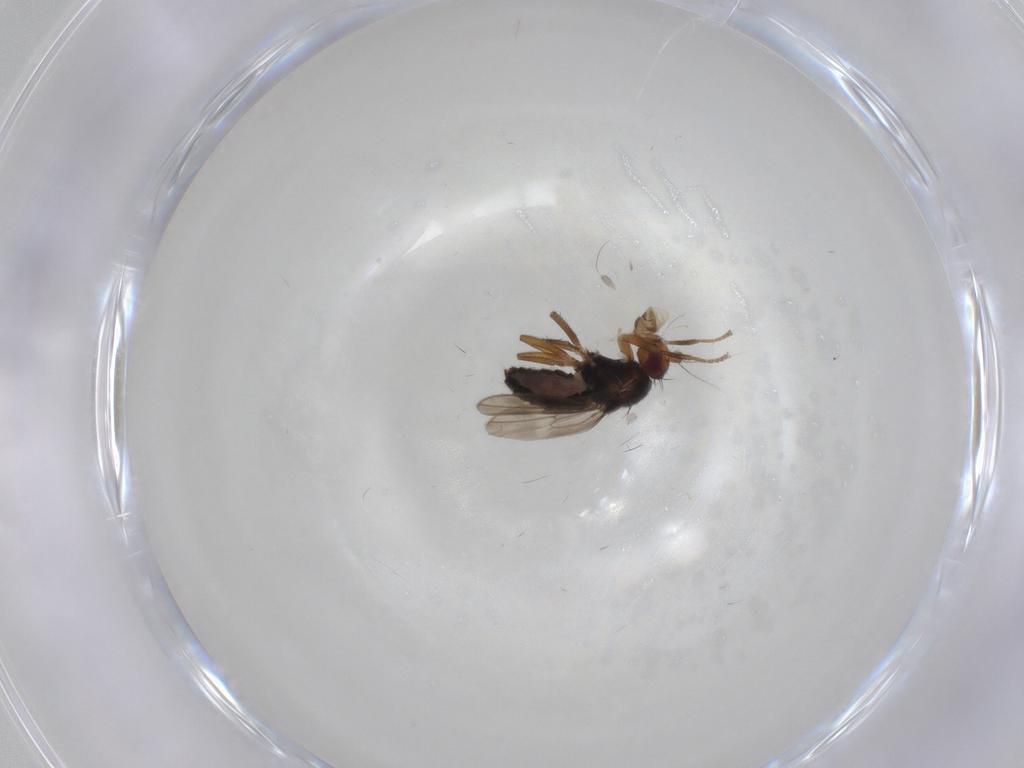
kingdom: Animalia
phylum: Arthropoda
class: Insecta
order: Diptera
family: Sphaeroceridae
